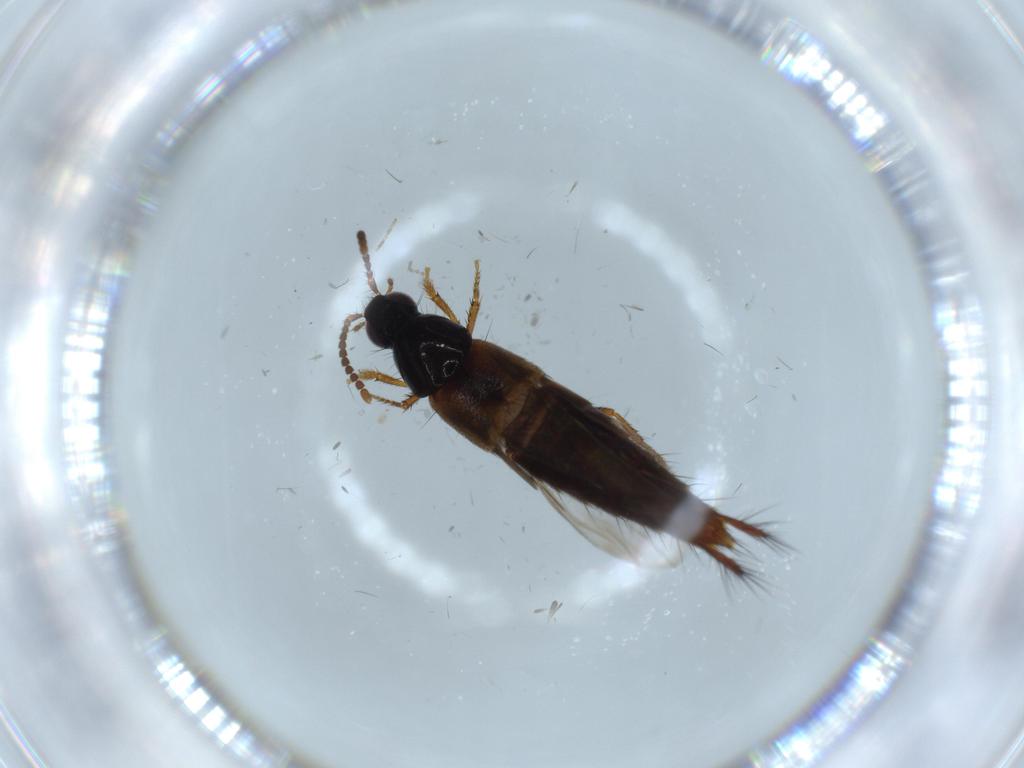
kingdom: Animalia
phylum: Arthropoda
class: Insecta
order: Coleoptera
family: Staphylinidae
